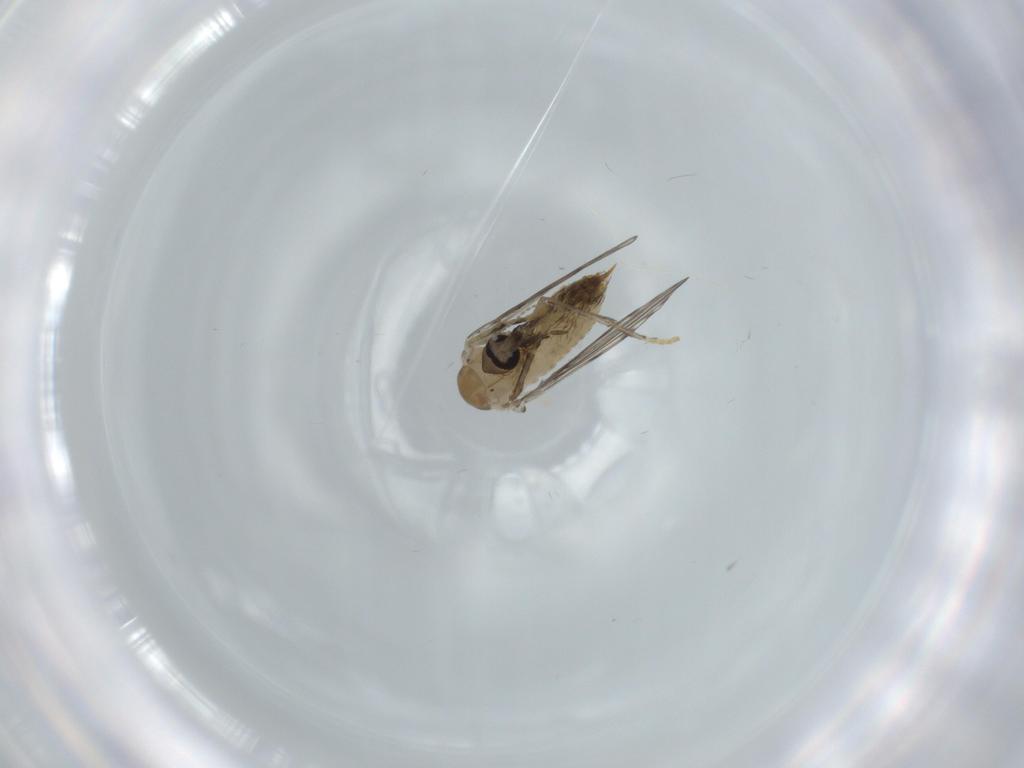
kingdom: Animalia
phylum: Arthropoda
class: Insecta
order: Diptera
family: Psychodidae
